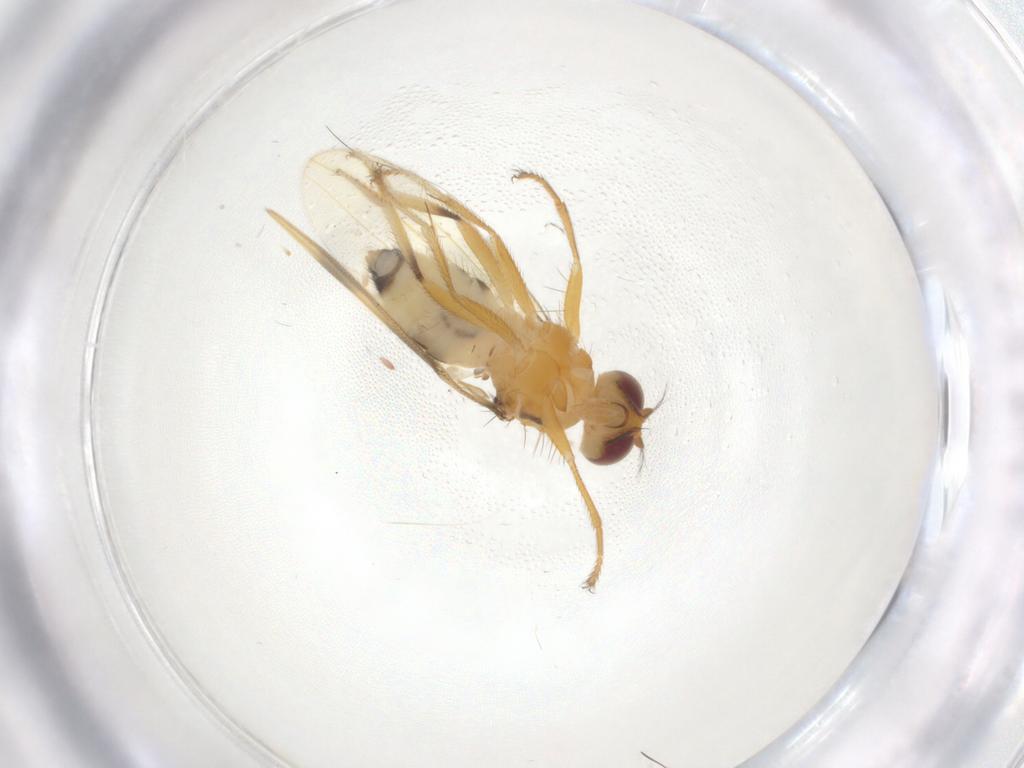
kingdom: Animalia
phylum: Arthropoda
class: Insecta
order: Diptera
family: Periscelididae
